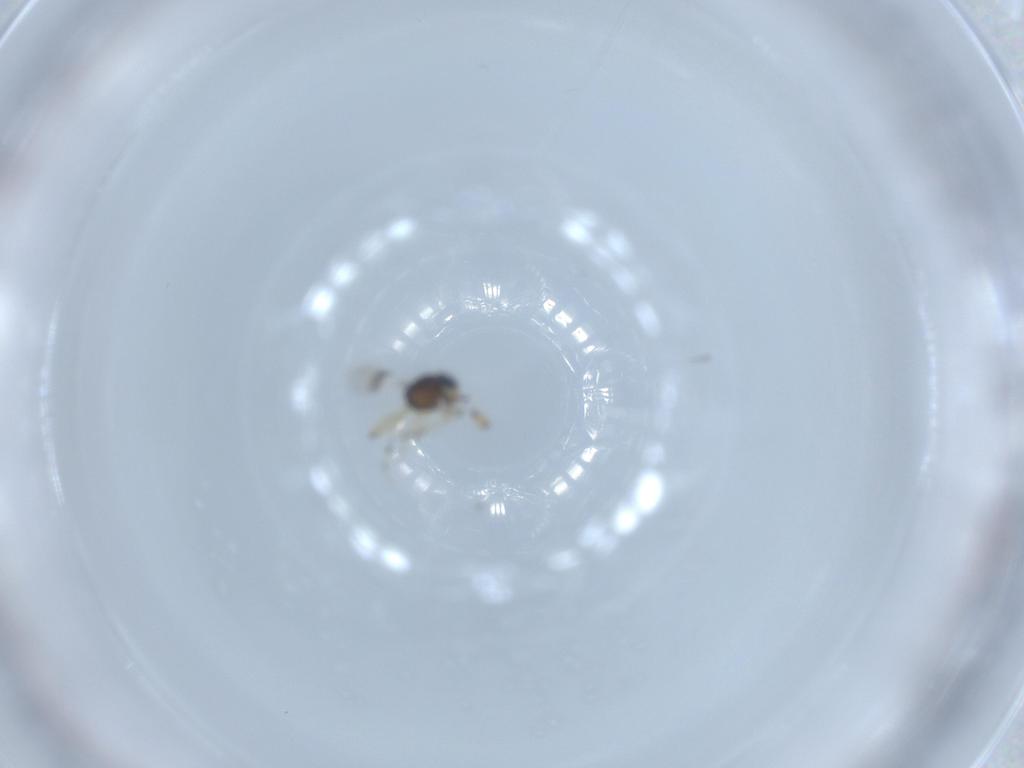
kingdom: Animalia
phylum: Arthropoda
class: Insecta
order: Hymenoptera
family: Scelionidae
